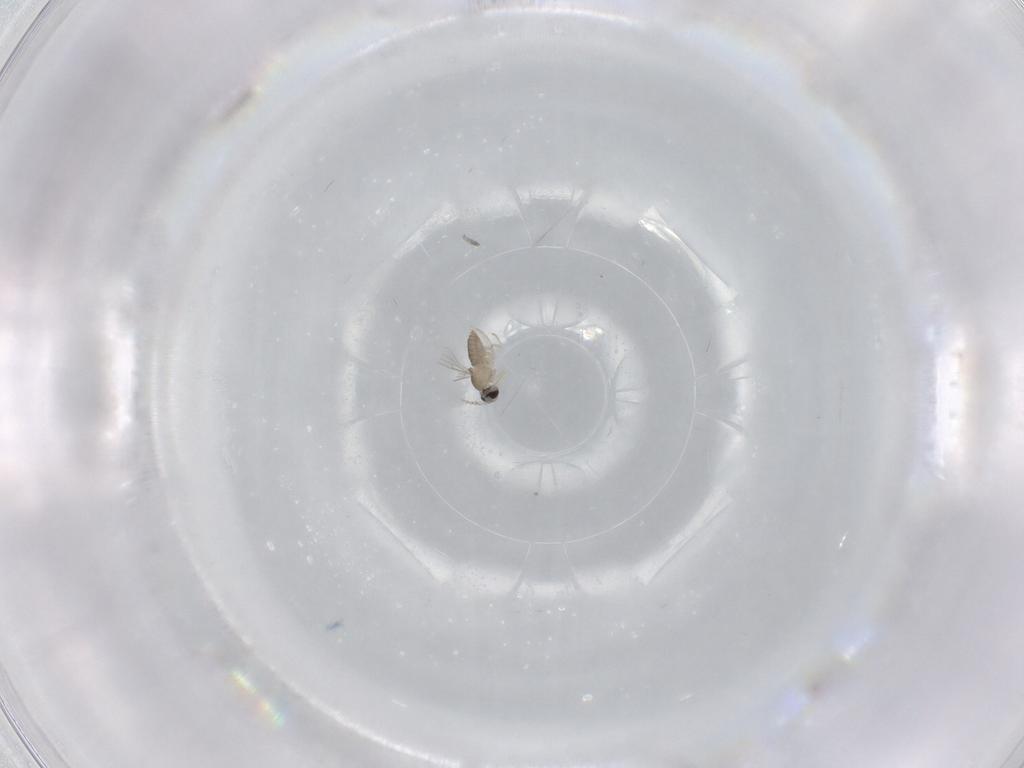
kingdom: Animalia
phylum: Arthropoda
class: Insecta
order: Diptera
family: Cecidomyiidae
